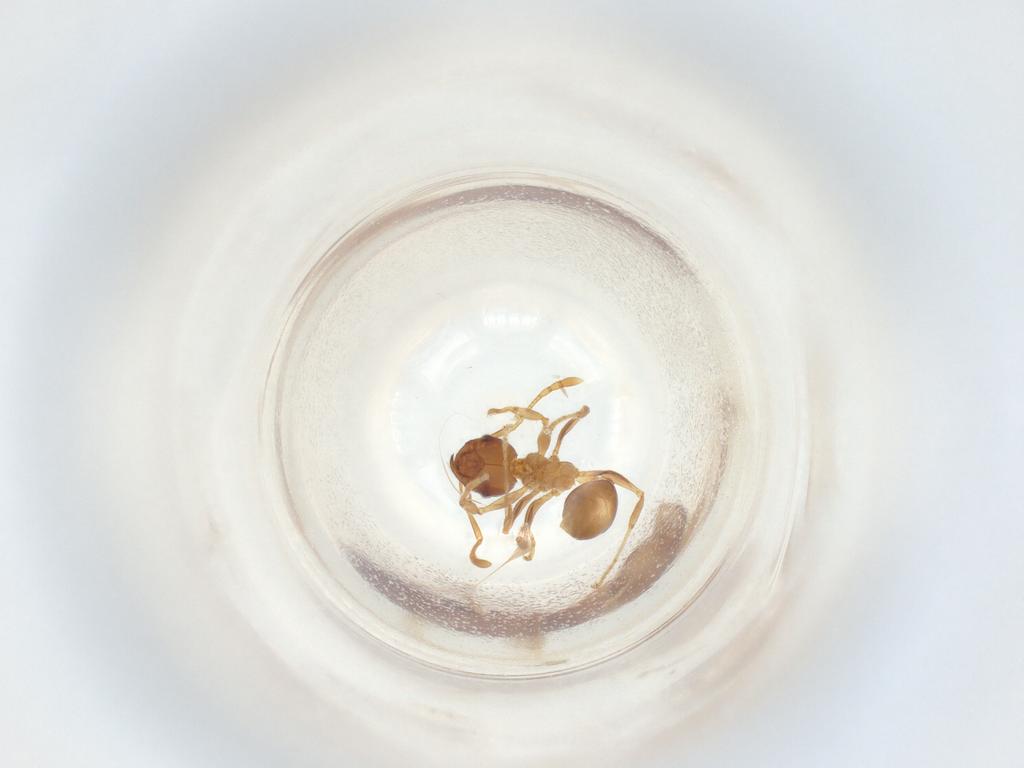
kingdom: Animalia
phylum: Arthropoda
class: Insecta
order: Hymenoptera
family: Formicidae
